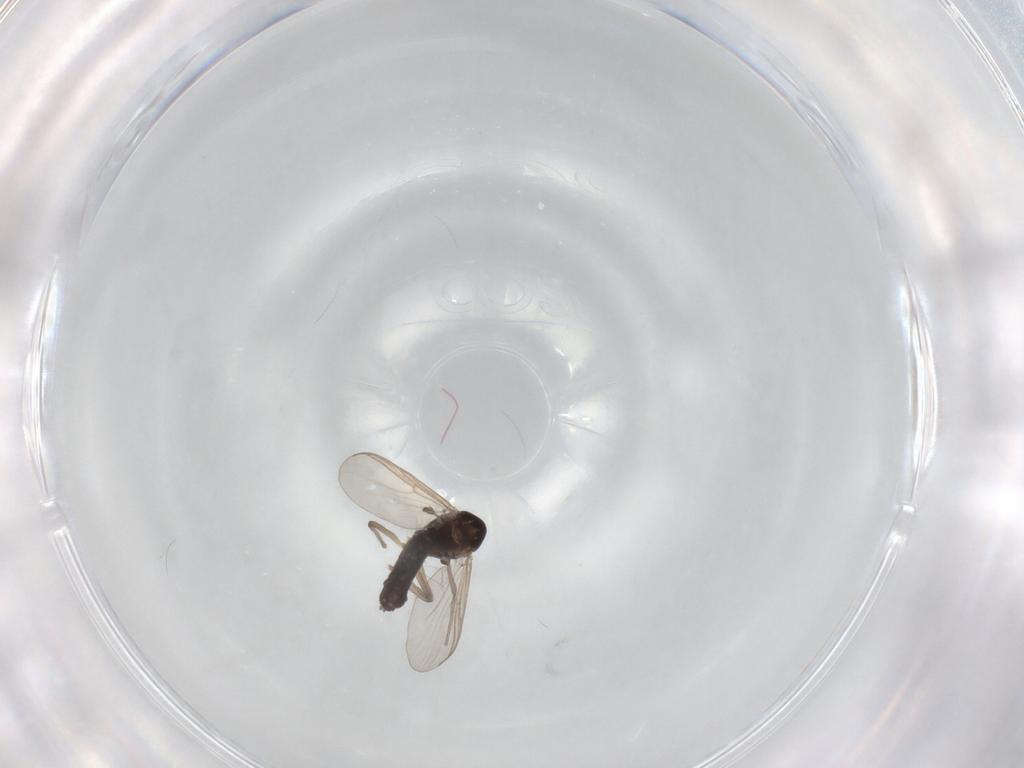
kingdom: Animalia
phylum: Arthropoda
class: Insecta
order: Diptera
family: Chironomidae
